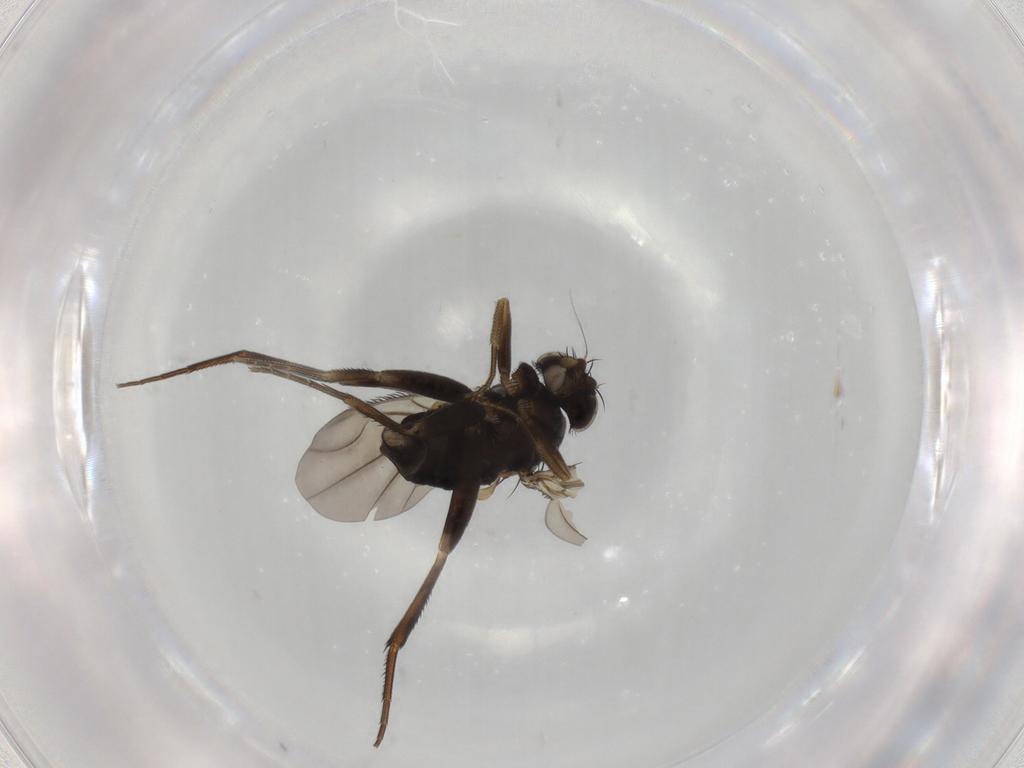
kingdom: Animalia
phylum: Arthropoda
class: Insecta
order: Diptera
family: Phoridae
